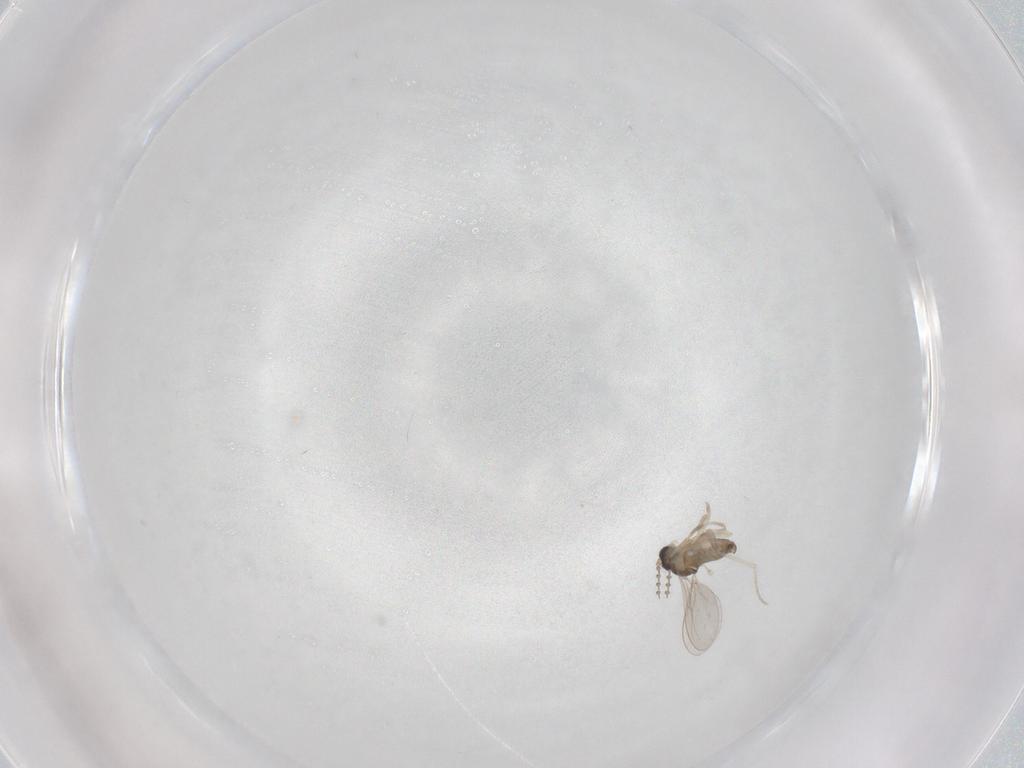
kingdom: Animalia
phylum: Arthropoda
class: Insecta
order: Diptera
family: Cecidomyiidae
